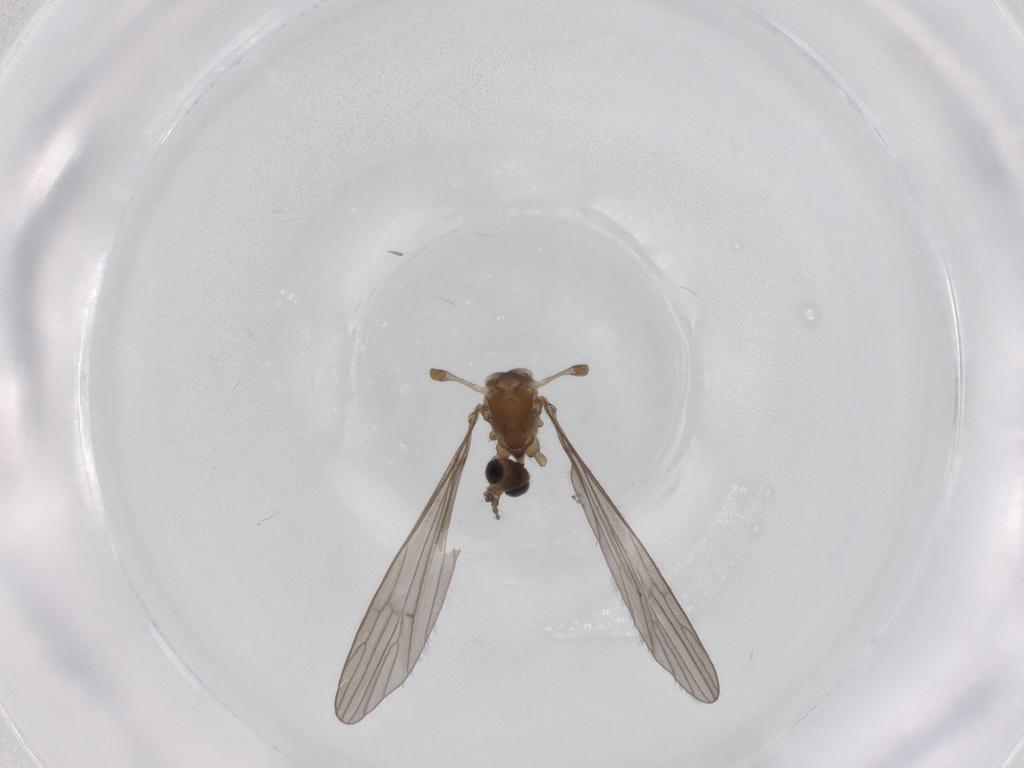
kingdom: Animalia
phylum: Arthropoda
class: Insecta
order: Diptera
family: Limoniidae
